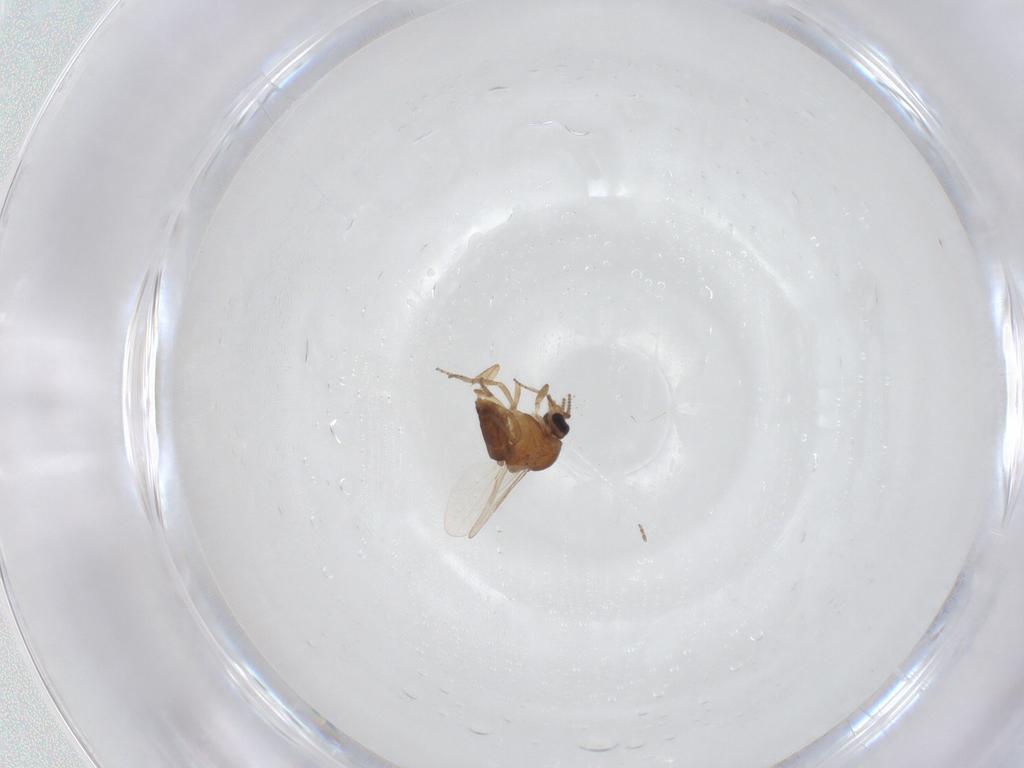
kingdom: Animalia
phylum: Arthropoda
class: Insecta
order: Diptera
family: Ceratopogonidae
